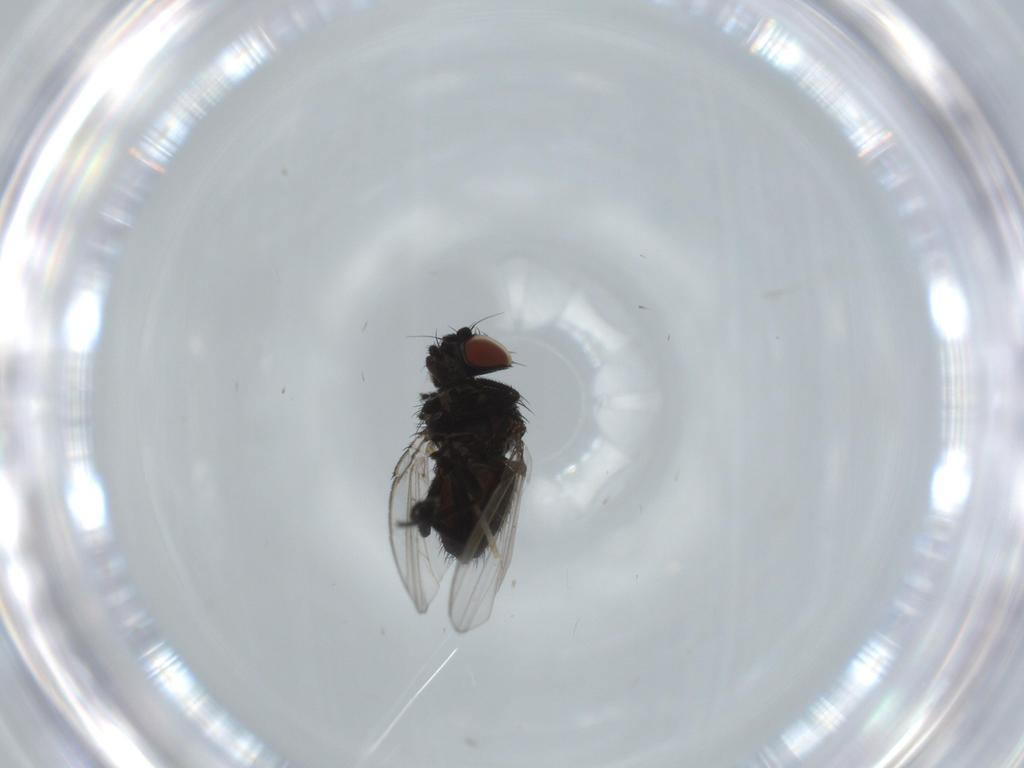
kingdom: Animalia
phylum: Arthropoda
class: Insecta
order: Diptera
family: Milichiidae
